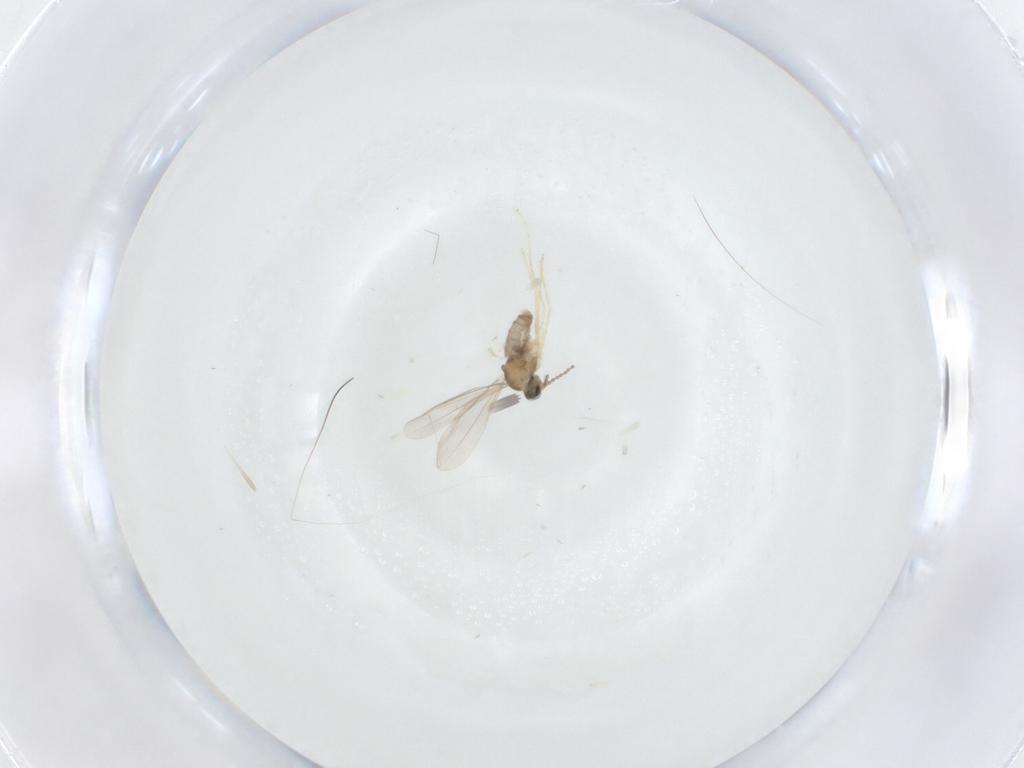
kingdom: Animalia
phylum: Arthropoda
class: Insecta
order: Diptera
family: Cecidomyiidae
